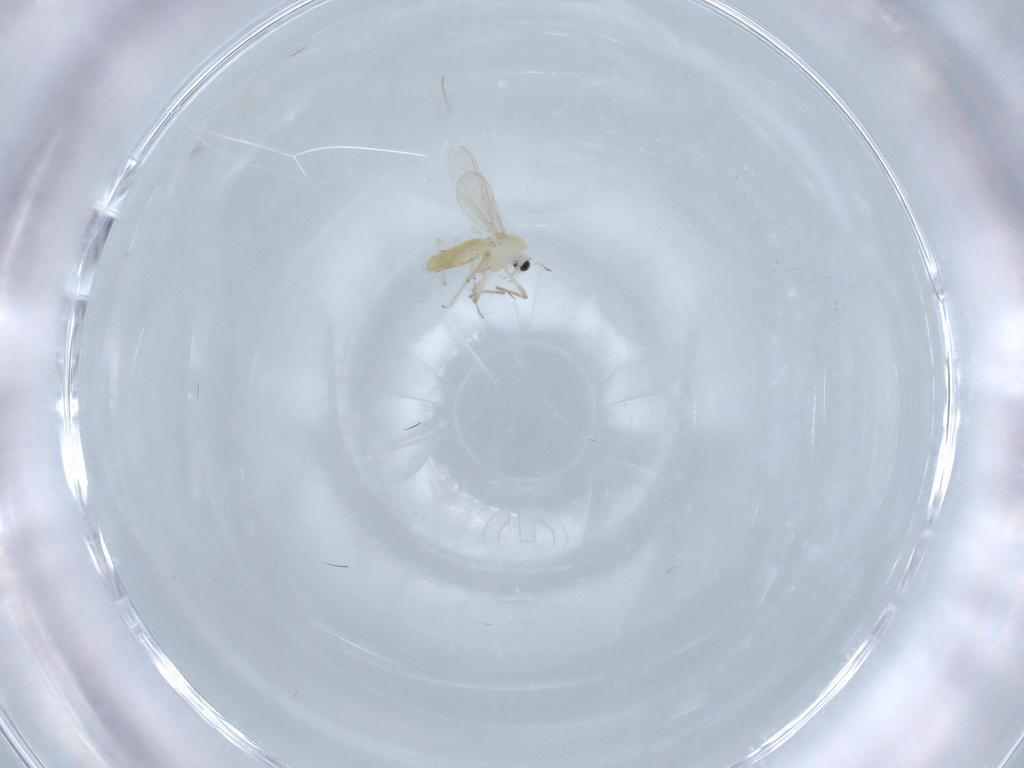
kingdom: Animalia
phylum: Arthropoda
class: Insecta
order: Diptera
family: Chironomidae
